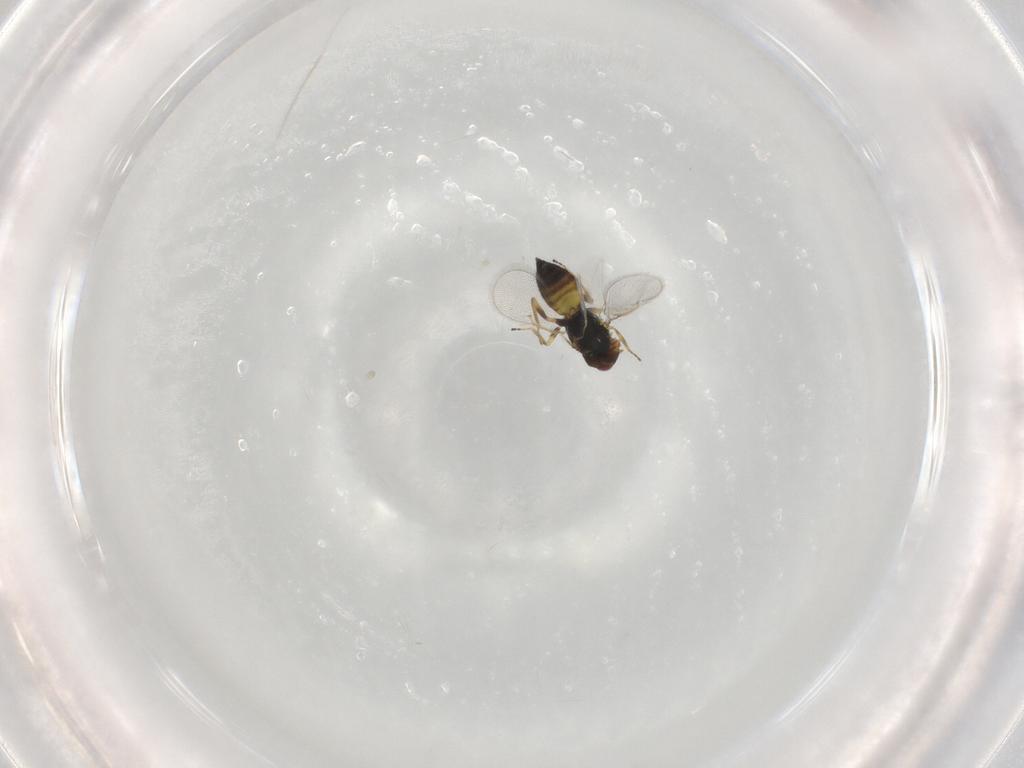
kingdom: Animalia
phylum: Arthropoda
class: Insecta
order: Hymenoptera
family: Eulophidae
